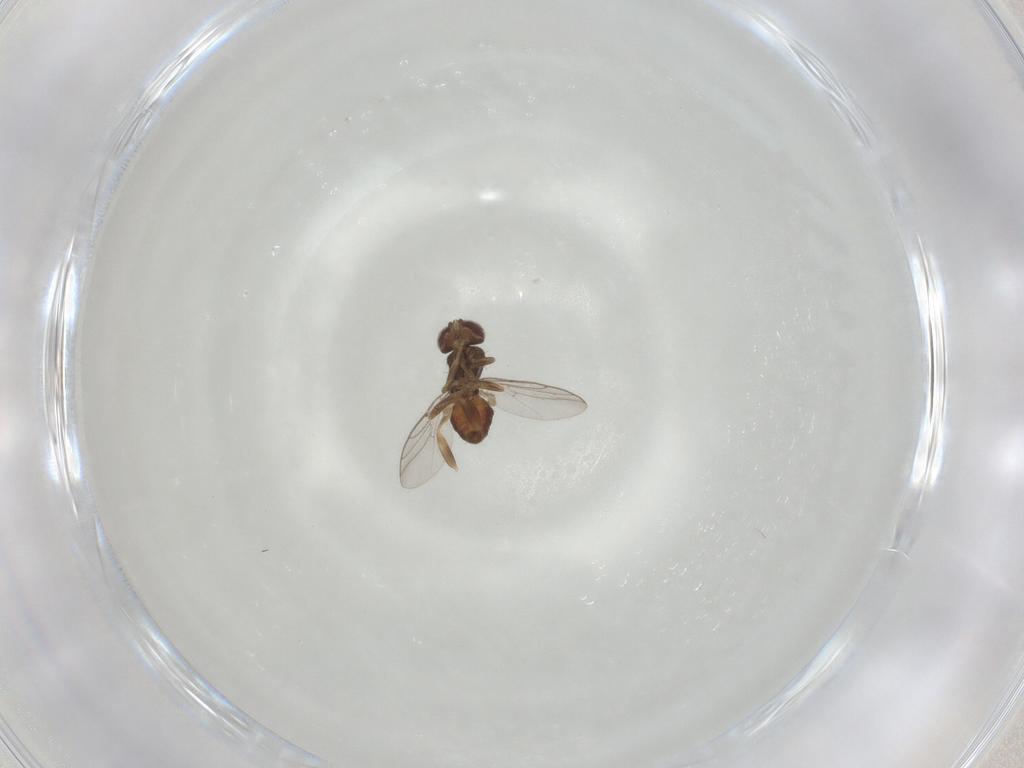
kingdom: Animalia
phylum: Arthropoda
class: Insecta
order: Diptera
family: Chloropidae
